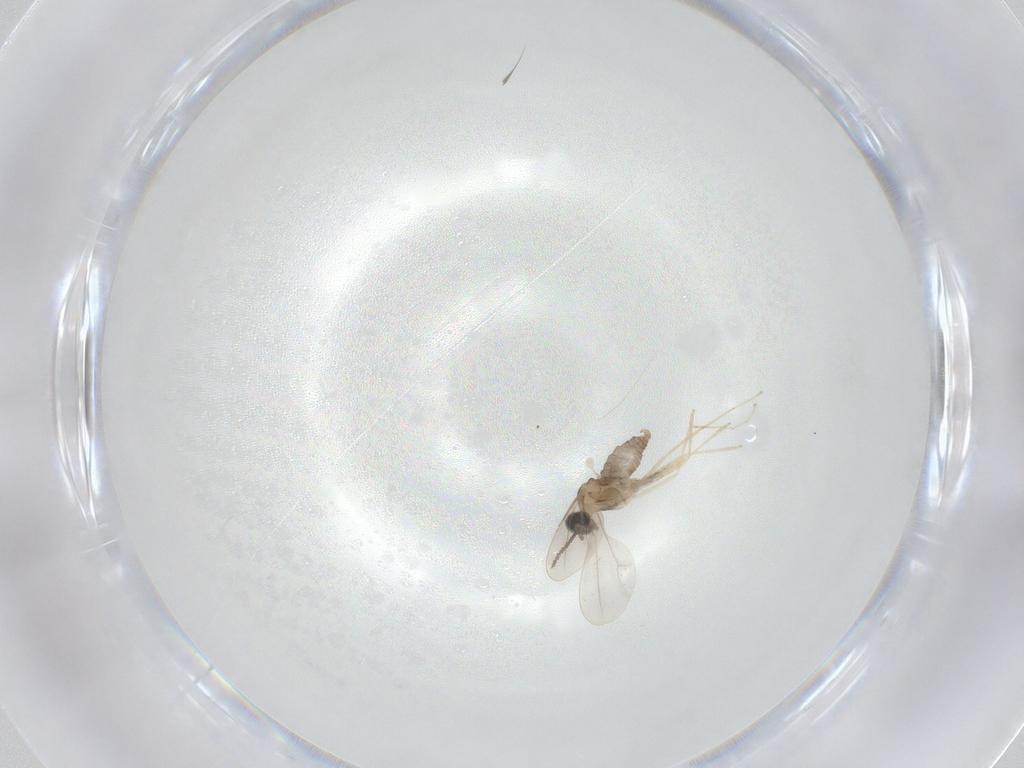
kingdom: Animalia
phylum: Arthropoda
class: Insecta
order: Diptera
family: Cecidomyiidae
